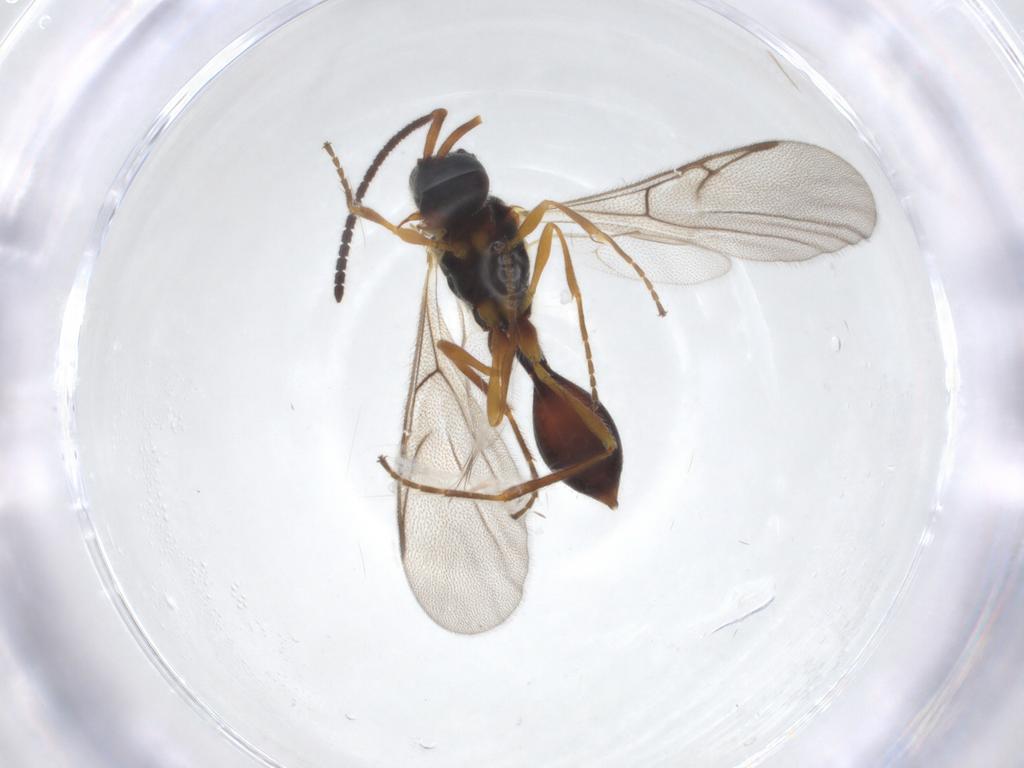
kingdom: Animalia
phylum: Arthropoda
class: Insecta
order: Hymenoptera
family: Diapriidae
